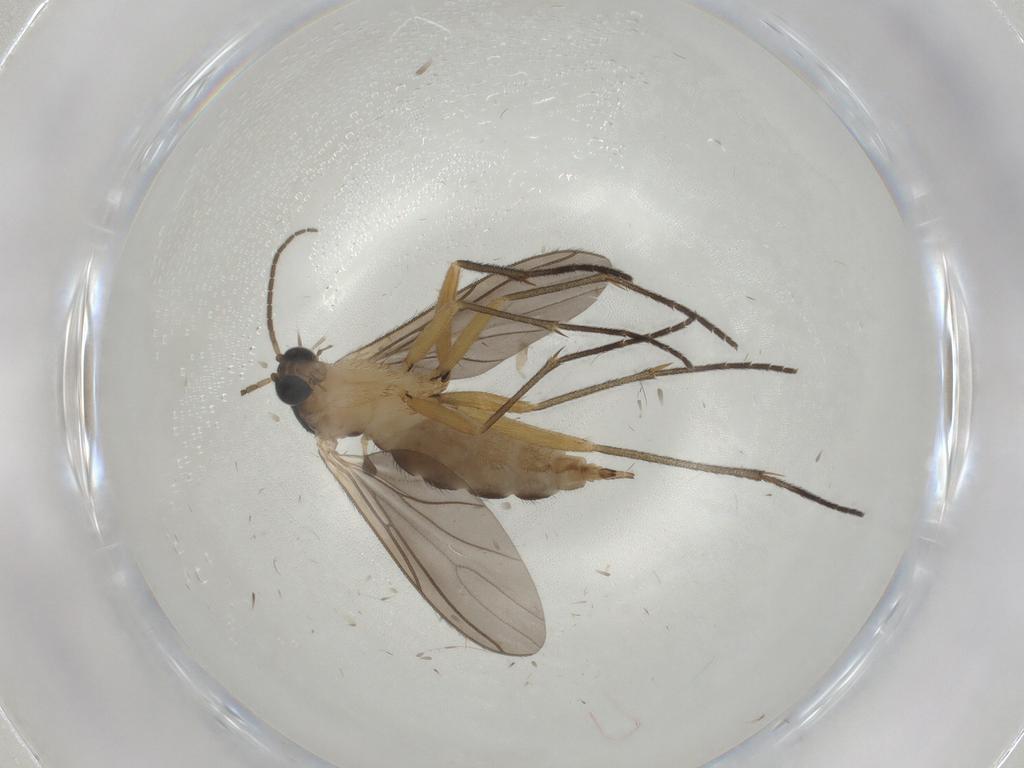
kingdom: Animalia
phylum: Arthropoda
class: Insecta
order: Diptera
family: Sciaridae
